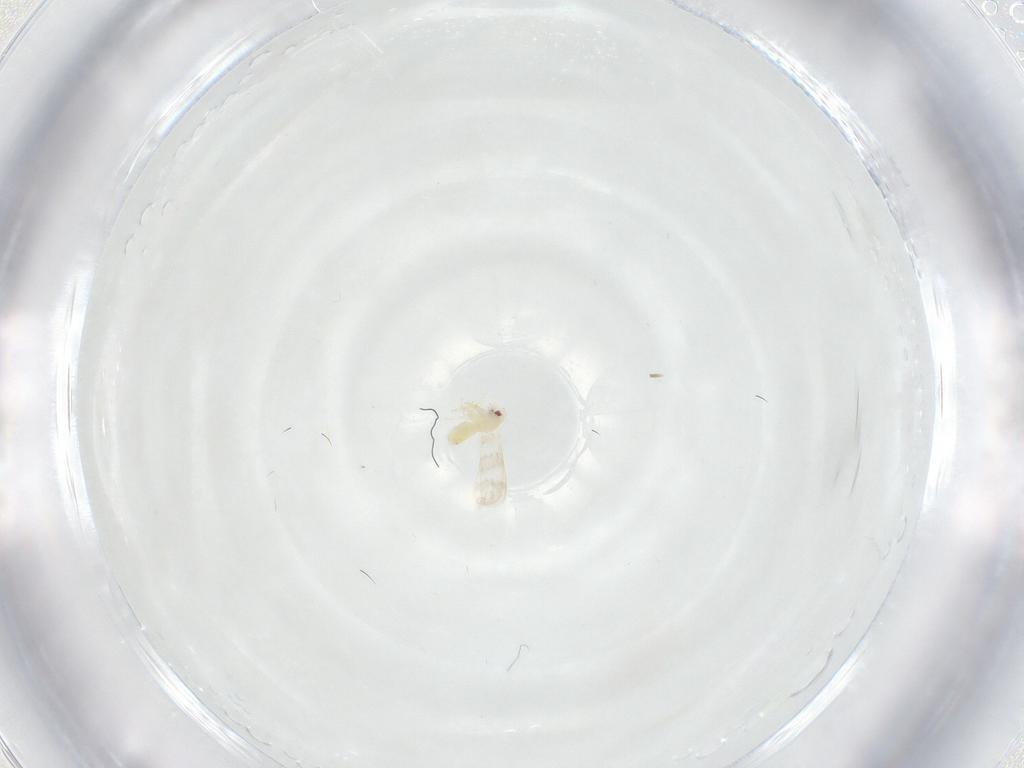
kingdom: Animalia
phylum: Arthropoda
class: Insecta
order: Hemiptera
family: Aleyrodidae
